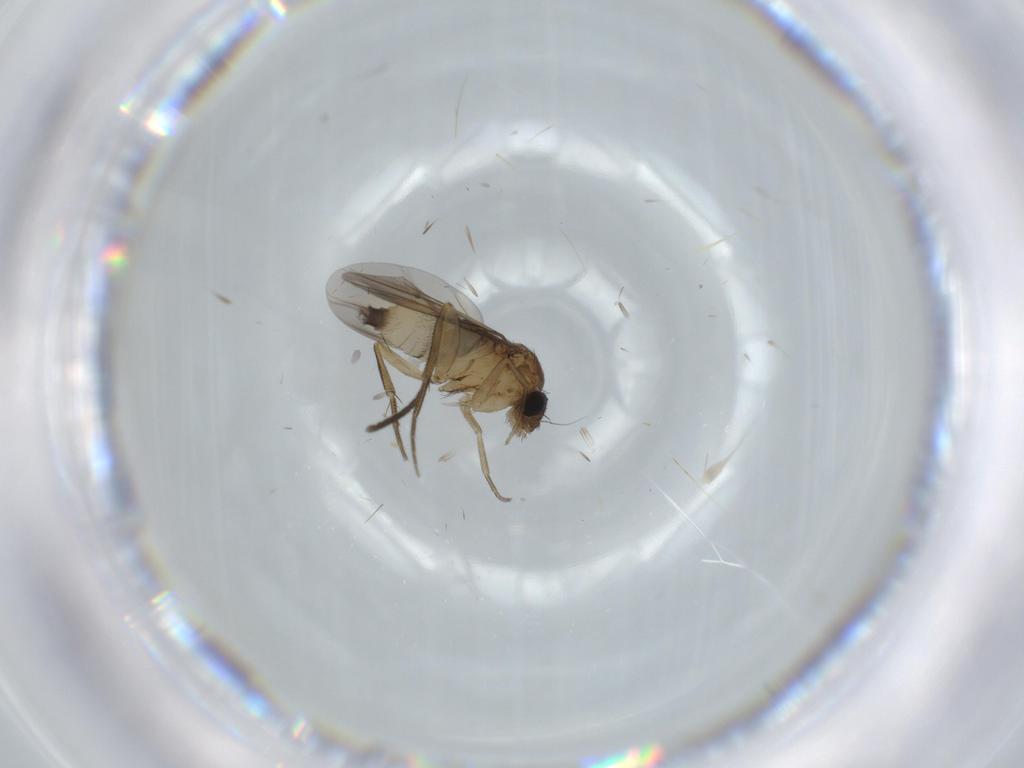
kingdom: Animalia
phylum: Arthropoda
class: Insecta
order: Diptera
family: Phoridae
